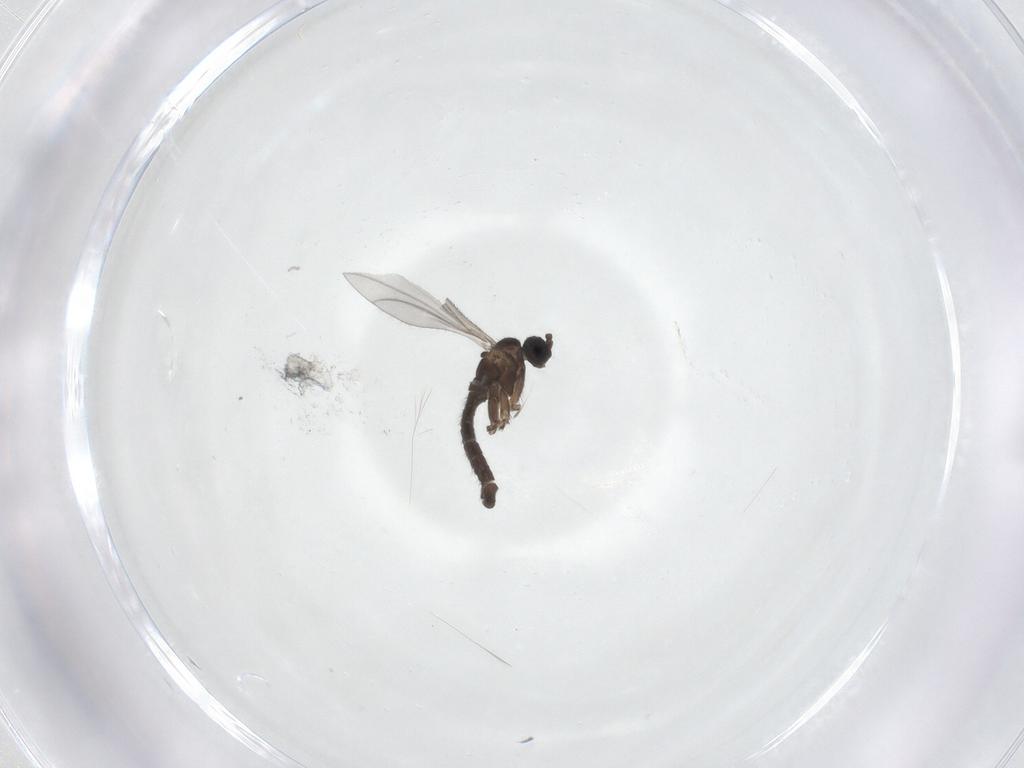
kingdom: Animalia
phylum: Arthropoda
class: Insecta
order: Diptera
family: Sciaridae
